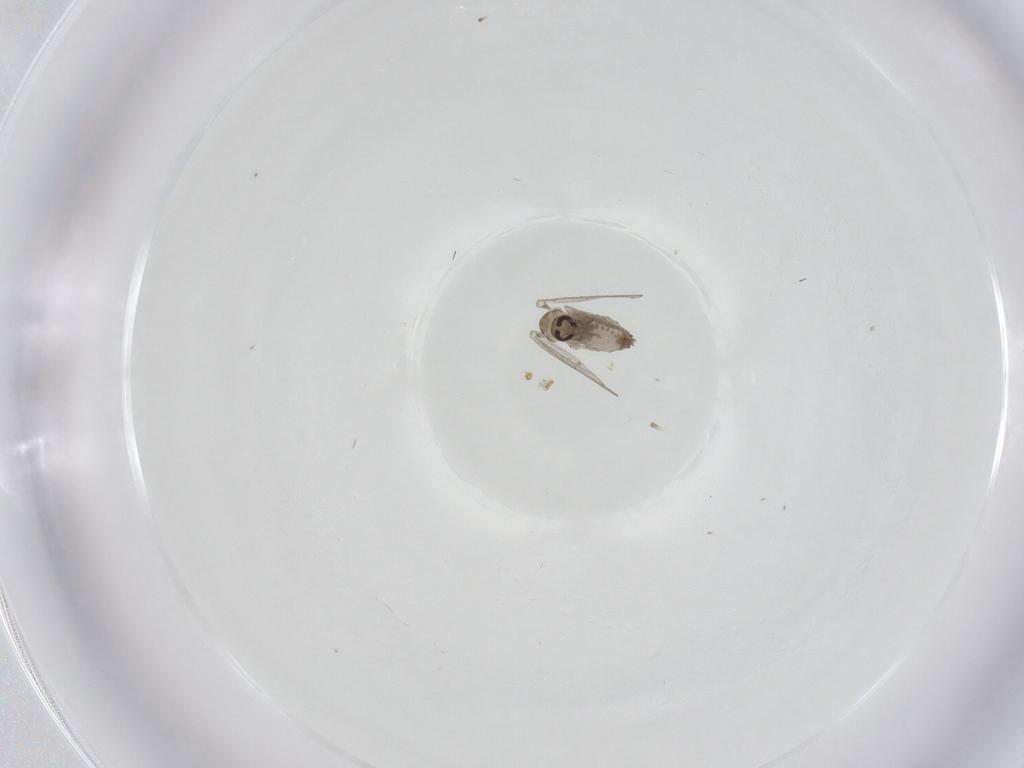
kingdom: Animalia
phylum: Arthropoda
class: Insecta
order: Diptera
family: Psychodidae
